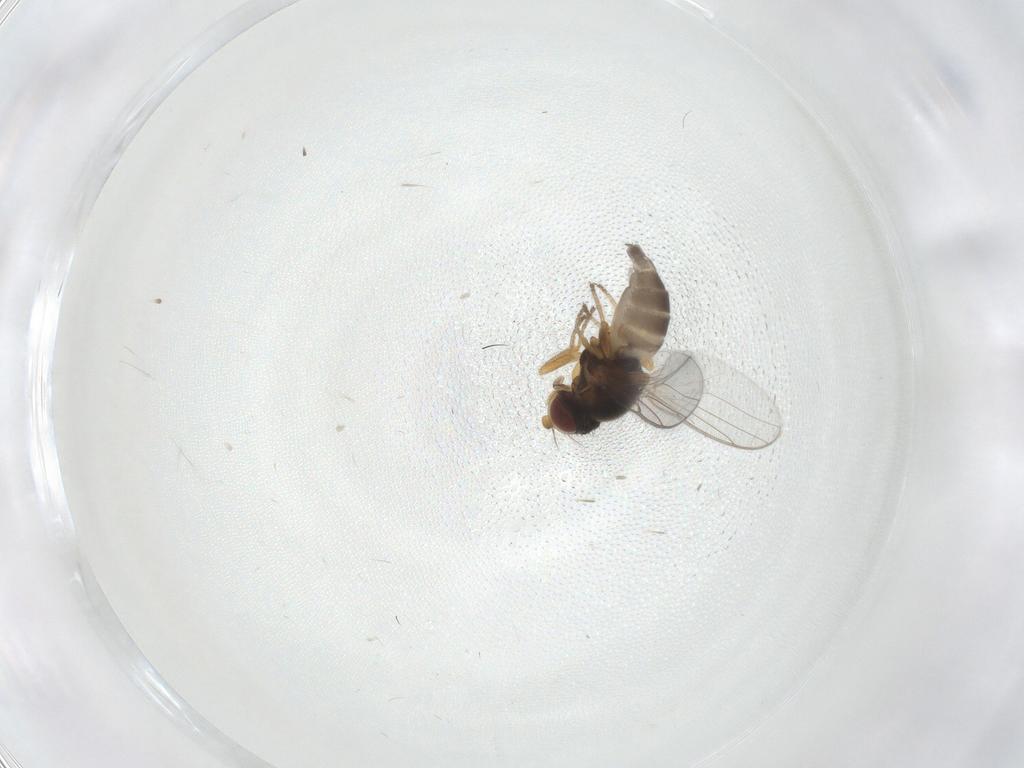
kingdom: Animalia
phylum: Arthropoda
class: Insecta
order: Diptera
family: Chloropidae
